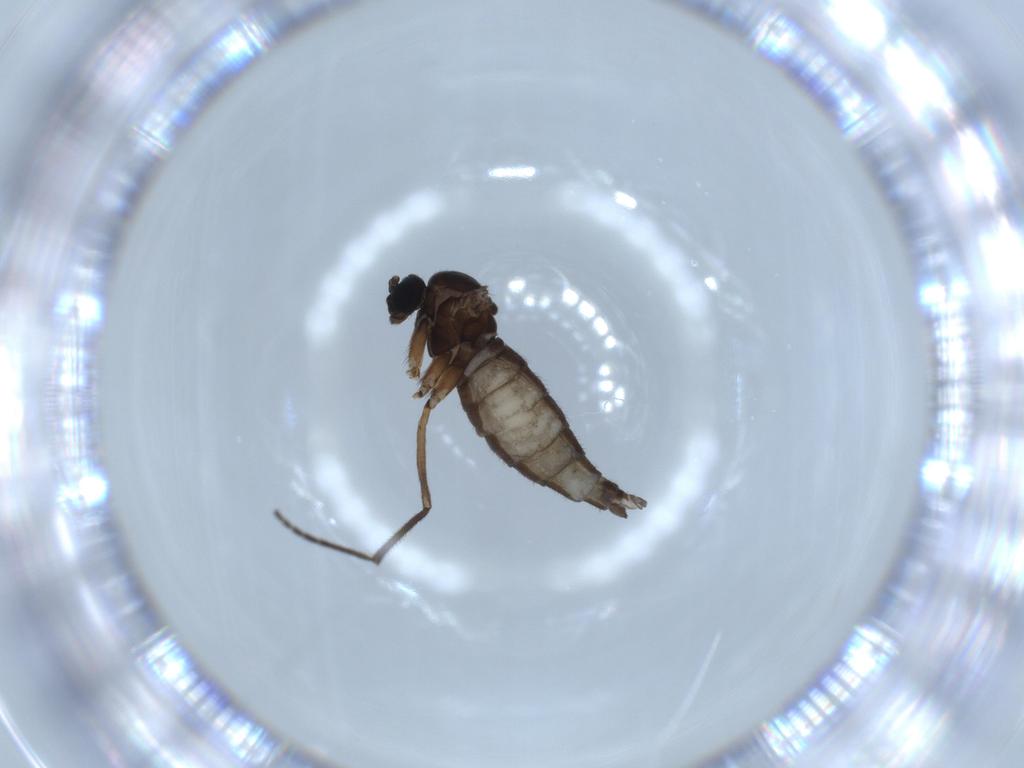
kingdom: Animalia
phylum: Arthropoda
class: Insecta
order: Diptera
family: Sciaridae
